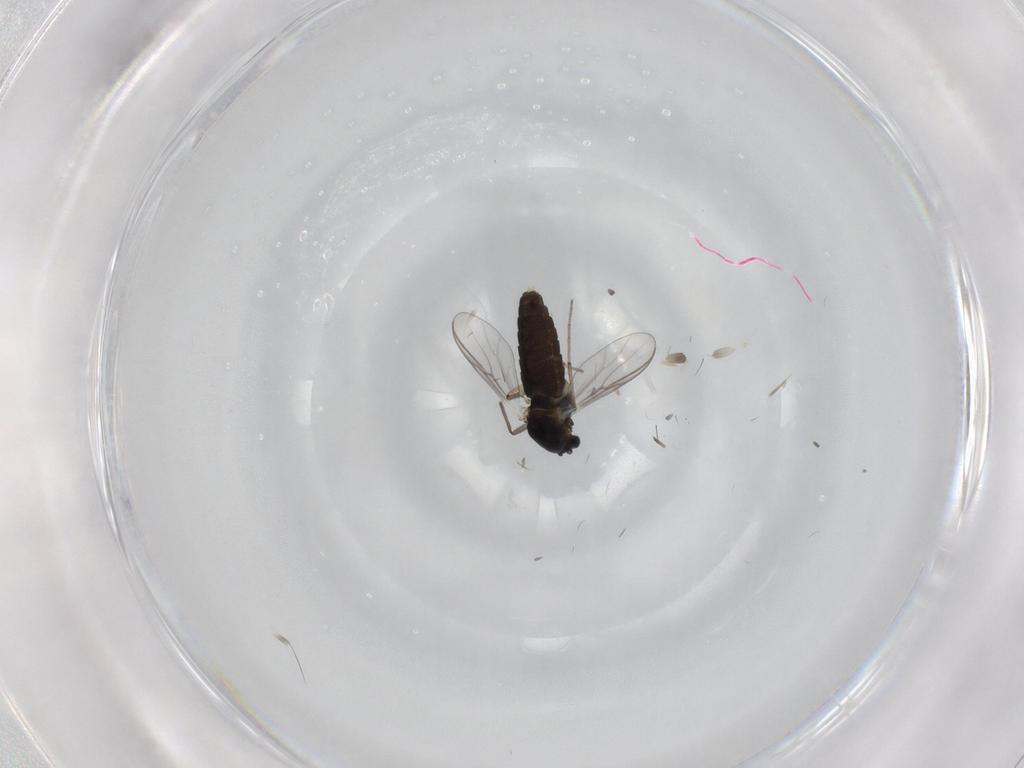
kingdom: Animalia
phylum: Arthropoda
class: Insecta
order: Diptera
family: Chironomidae
